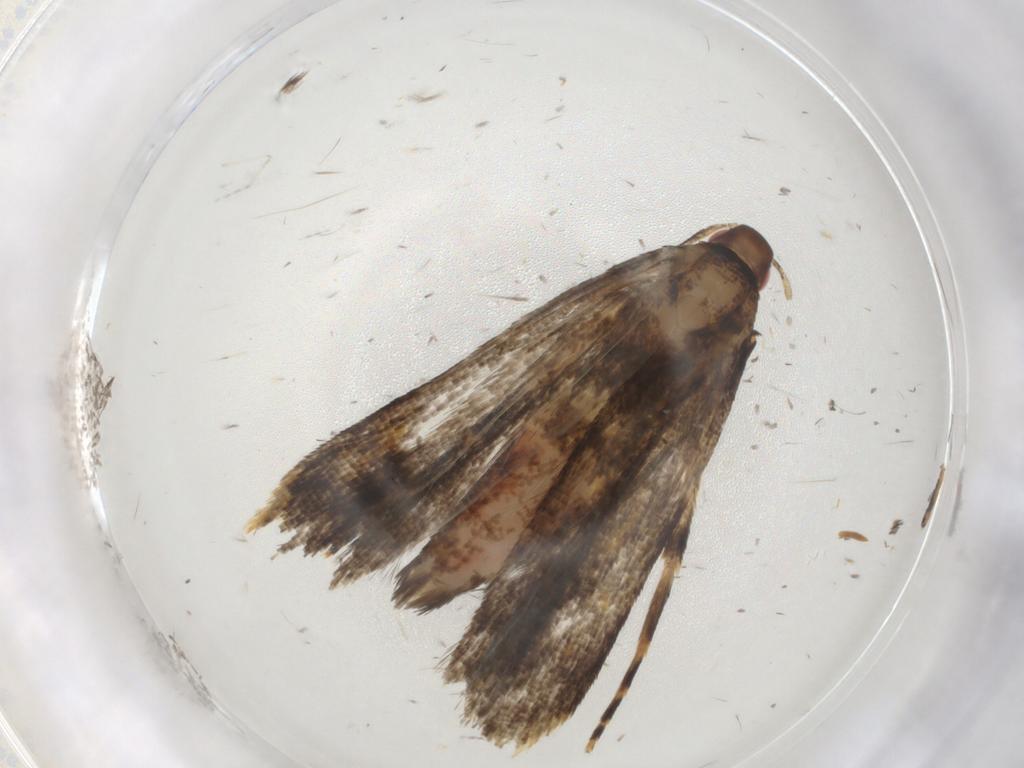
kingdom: Animalia
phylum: Arthropoda
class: Insecta
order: Lepidoptera
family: Gelechiidae
